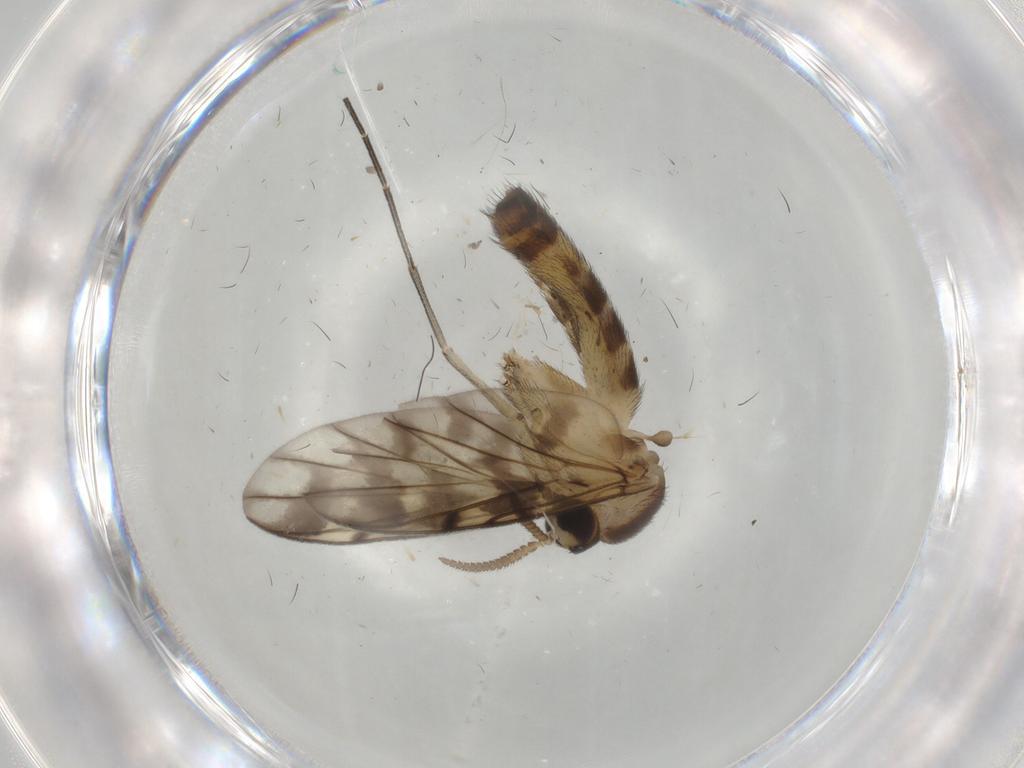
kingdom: Animalia
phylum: Arthropoda
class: Insecta
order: Diptera
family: Keroplatidae
